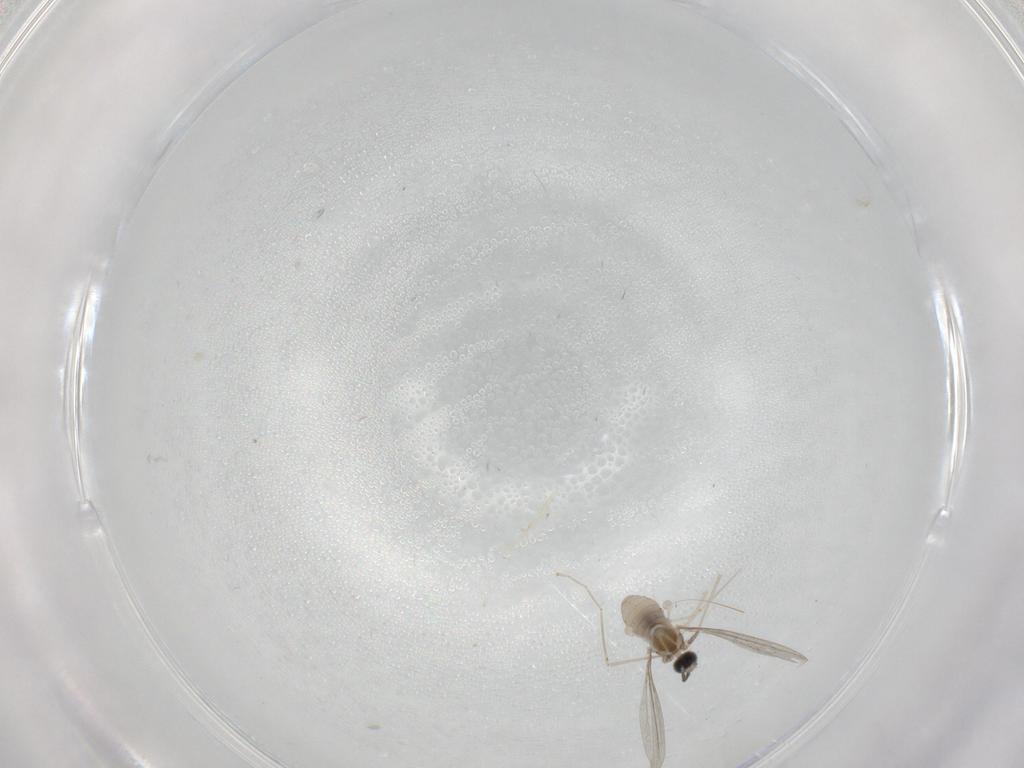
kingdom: Animalia
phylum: Arthropoda
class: Insecta
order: Diptera
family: Cecidomyiidae
